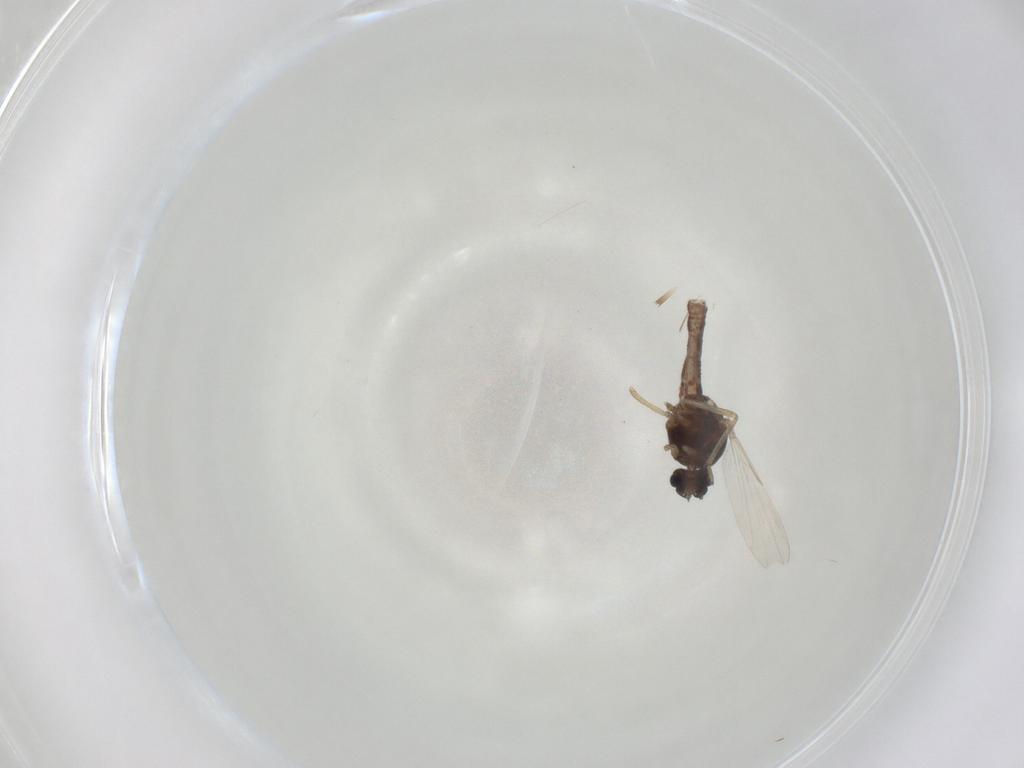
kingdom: Animalia
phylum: Arthropoda
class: Insecta
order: Diptera
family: Ceratopogonidae
